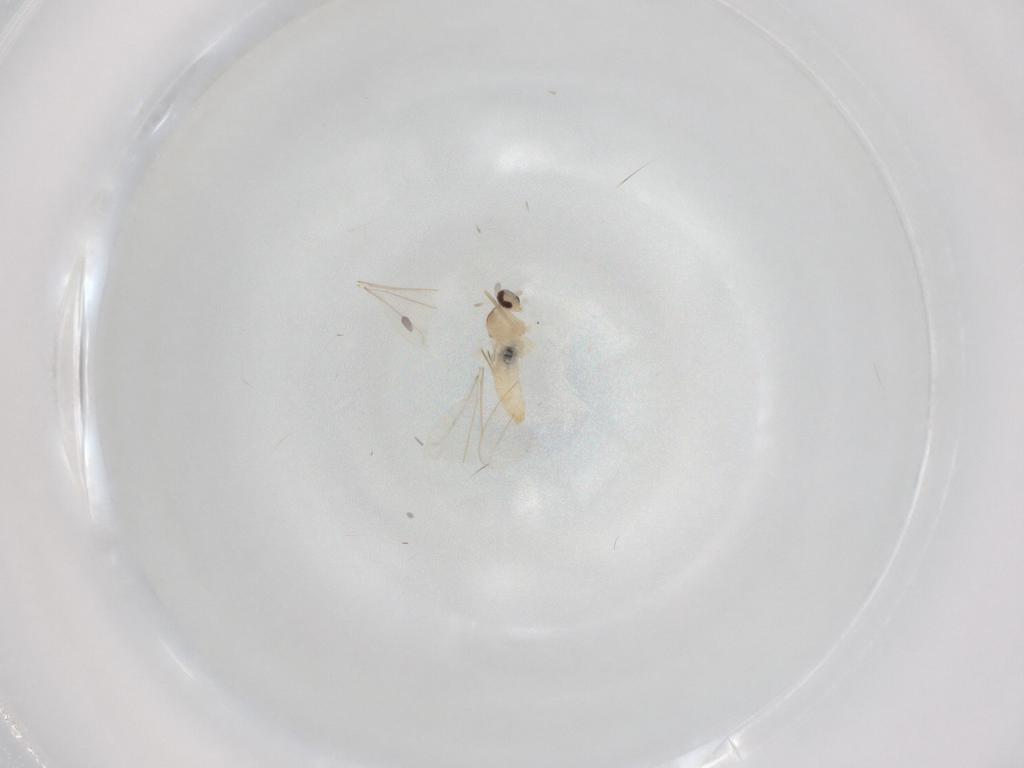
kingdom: Animalia
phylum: Arthropoda
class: Insecta
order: Diptera
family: Cecidomyiidae
